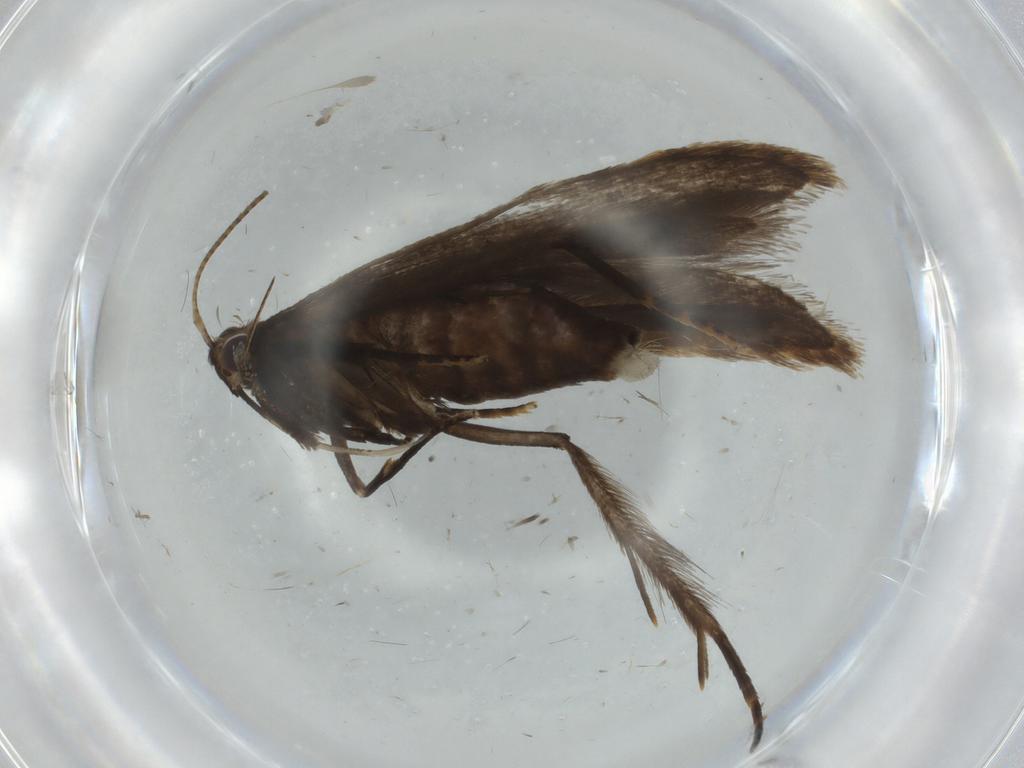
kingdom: Animalia
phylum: Arthropoda
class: Insecta
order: Lepidoptera
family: Gelechiidae
